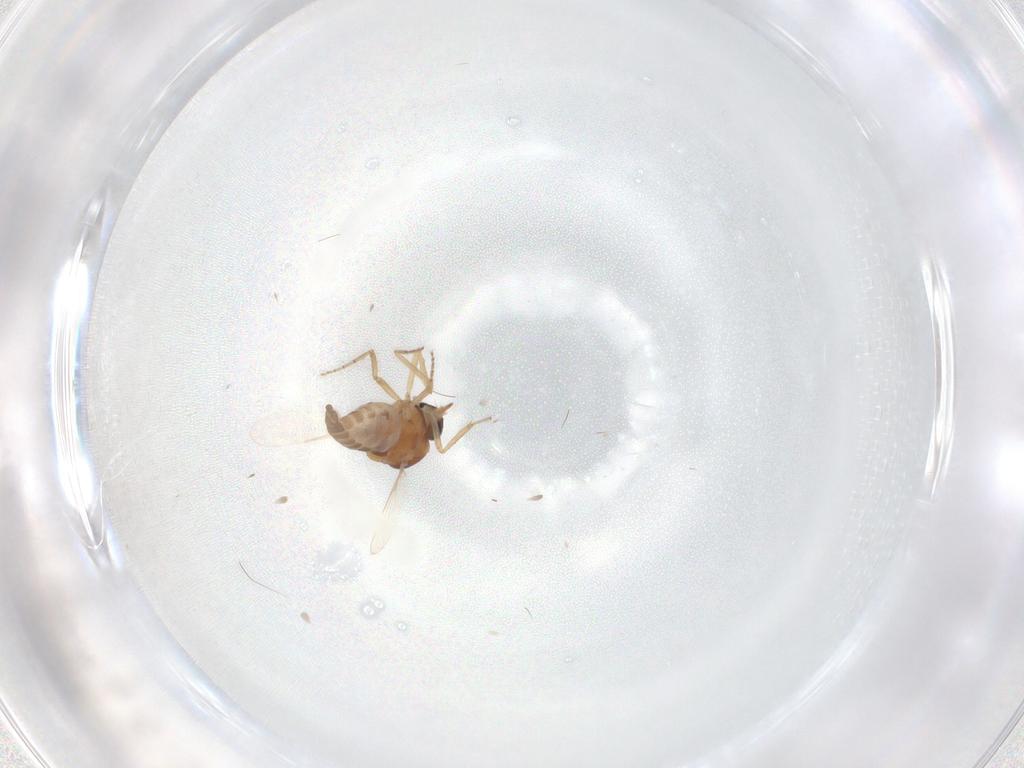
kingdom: Animalia
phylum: Arthropoda
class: Insecta
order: Diptera
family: Ceratopogonidae
